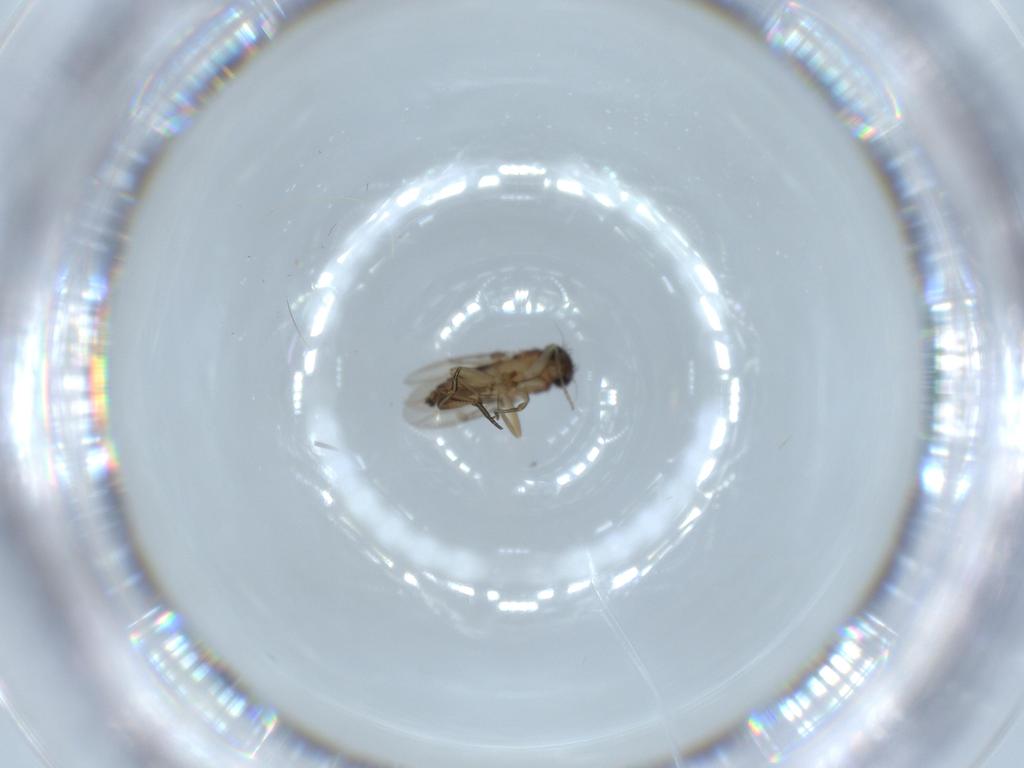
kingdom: Animalia
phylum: Arthropoda
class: Insecta
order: Diptera
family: Phoridae
